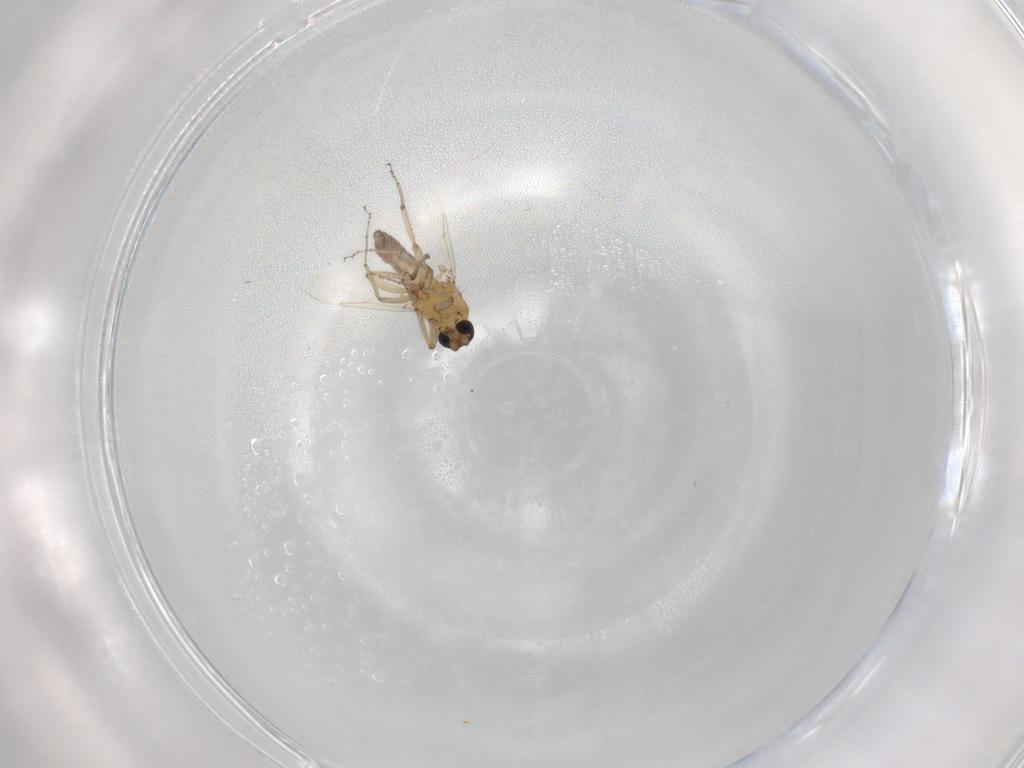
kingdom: Animalia
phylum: Arthropoda
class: Insecta
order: Diptera
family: Ceratopogonidae
